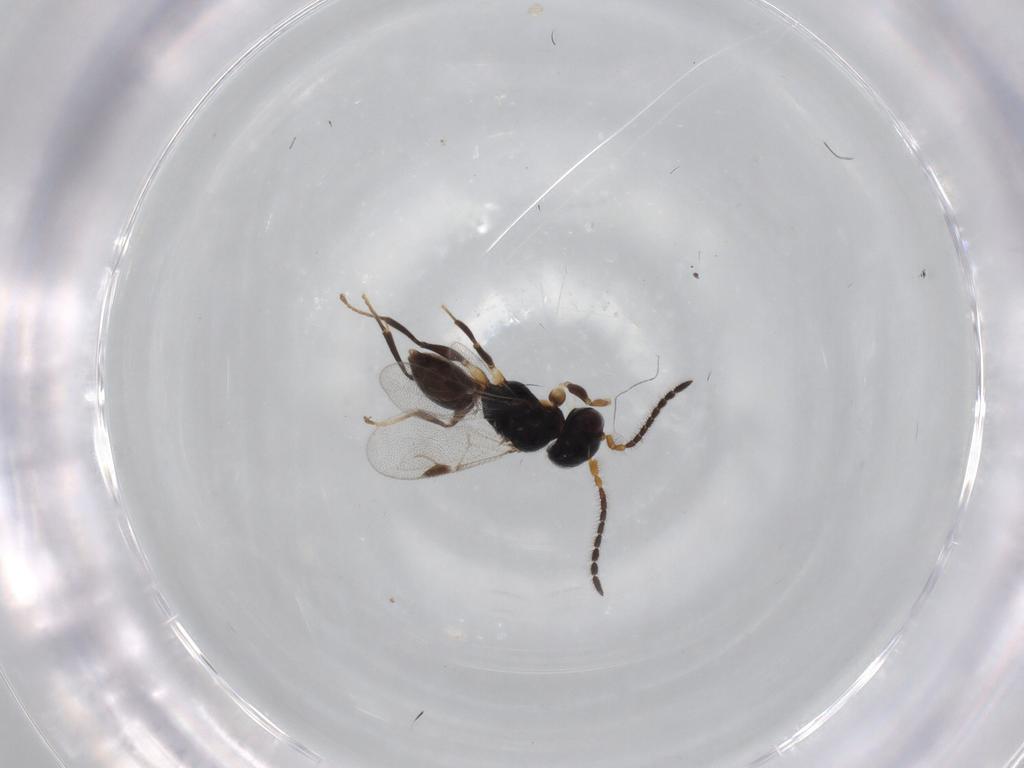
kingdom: Animalia
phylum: Arthropoda
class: Insecta
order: Hymenoptera
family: Dryinidae
